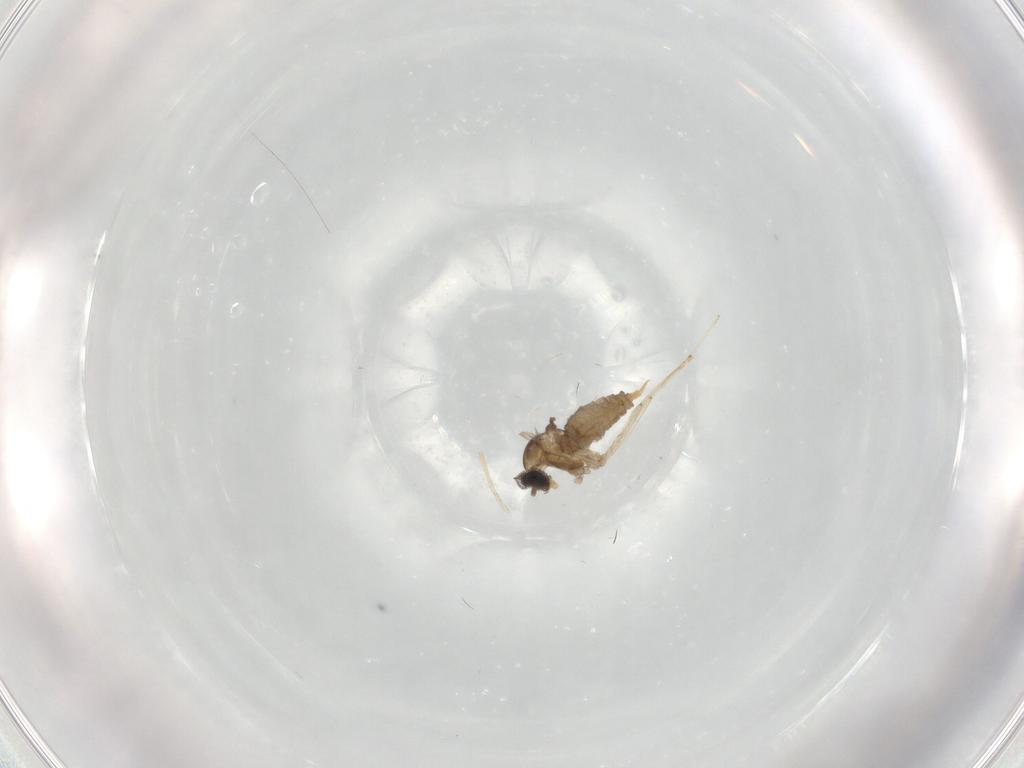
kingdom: Animalia
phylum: Arthropoda
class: Insecta
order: Diptera
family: Cecidomyiidae
